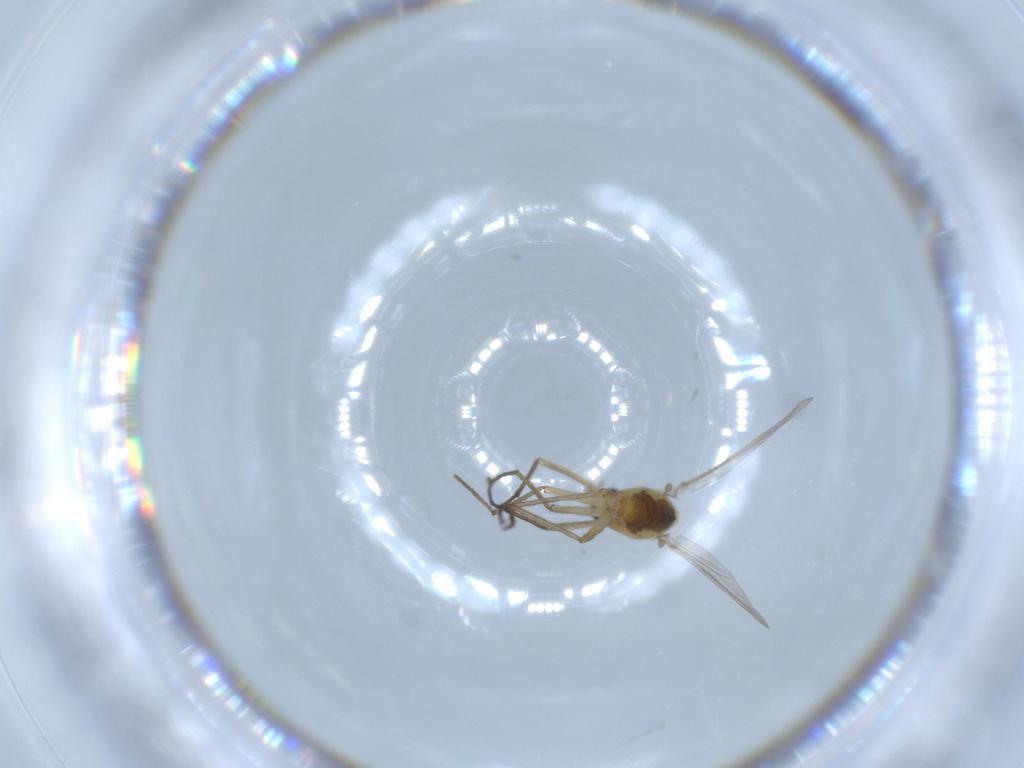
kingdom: Animalia
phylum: Arthropoda
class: Insecta
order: Diptera
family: Chironomidae
